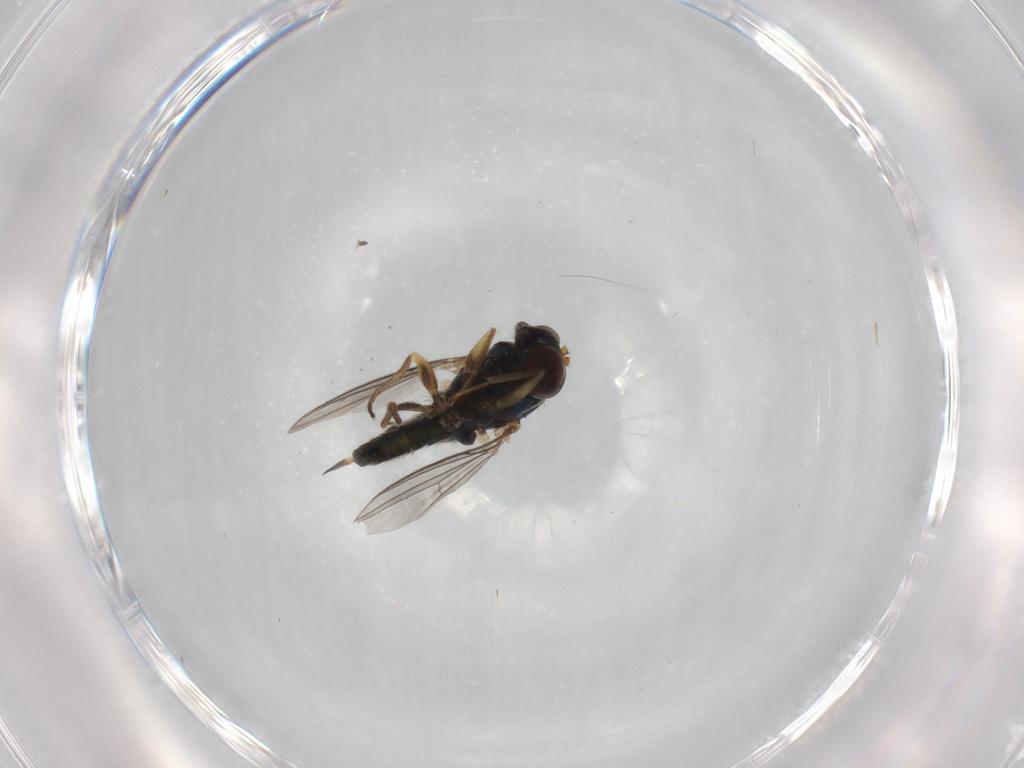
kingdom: Animalia
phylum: Arthropoda
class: Insecta
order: Diptera
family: Dolichopodidae
